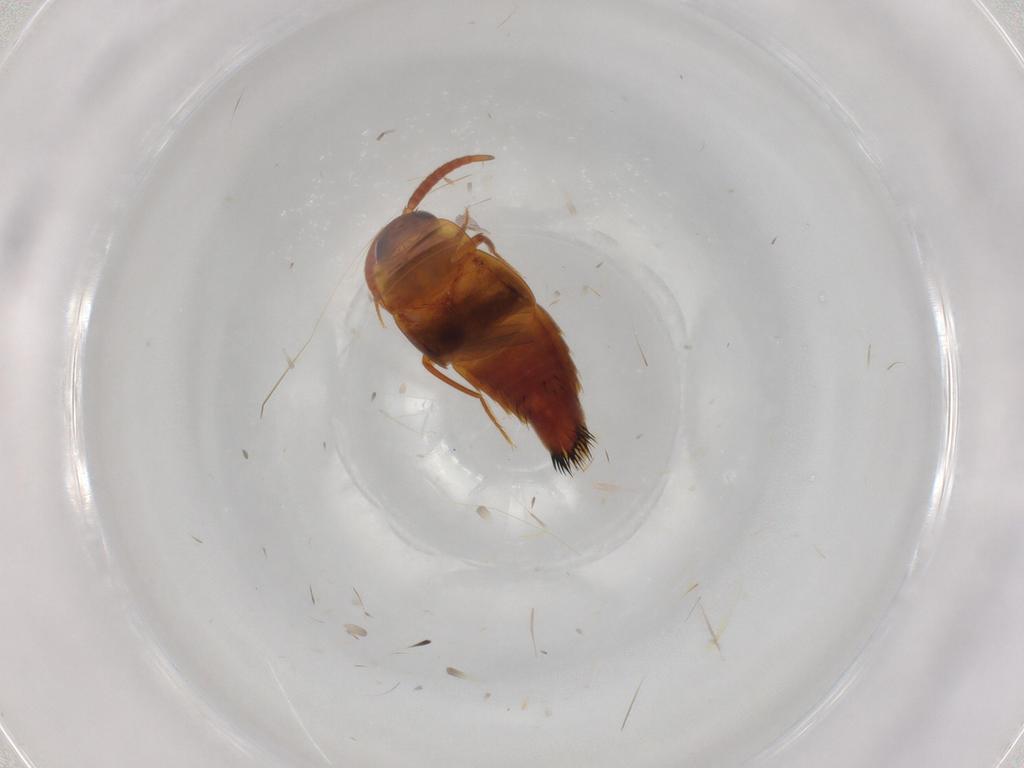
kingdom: Animalia
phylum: Arthropoda
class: Insecta
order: Coleoptera
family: Staphylinidae
